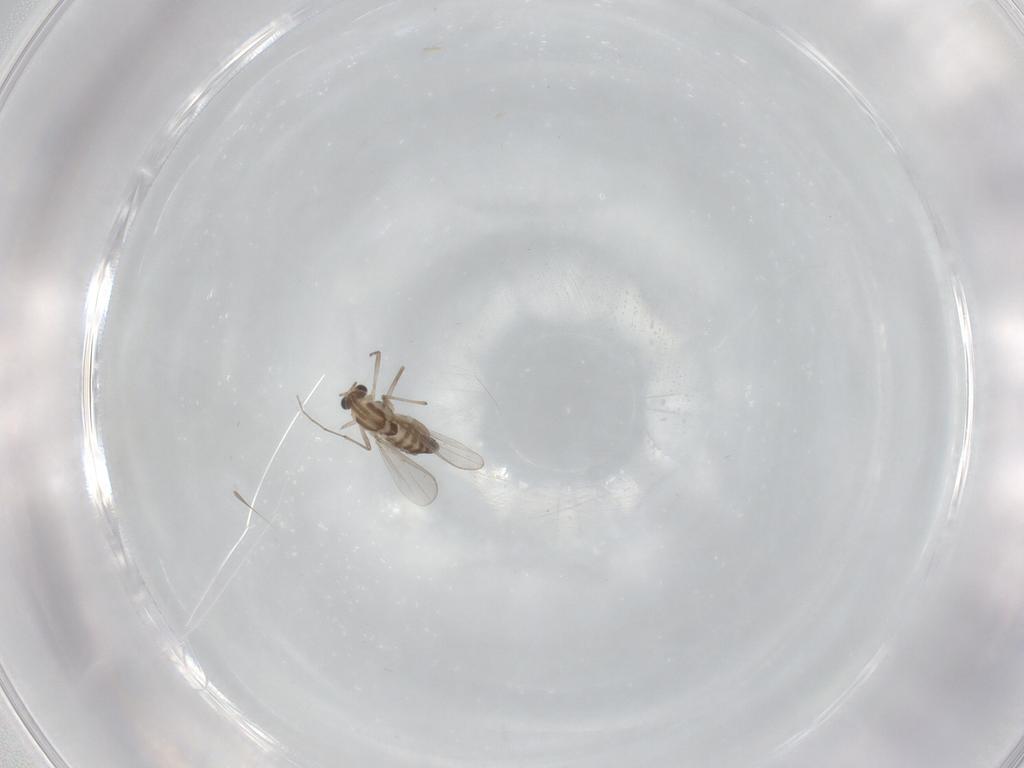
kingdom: Animalia
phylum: Arthropoda
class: Insecta
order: Diptera
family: Chironomidae
